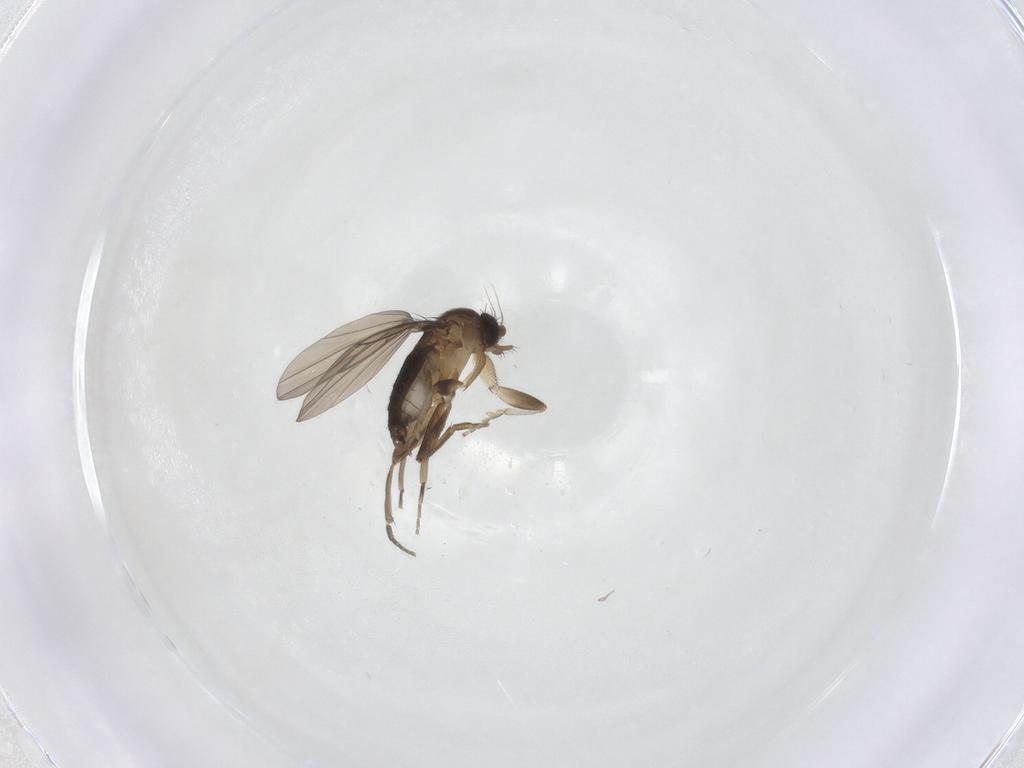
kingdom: Animalia
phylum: Arthropoda
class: Insecta
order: Diptera
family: Phoridae
